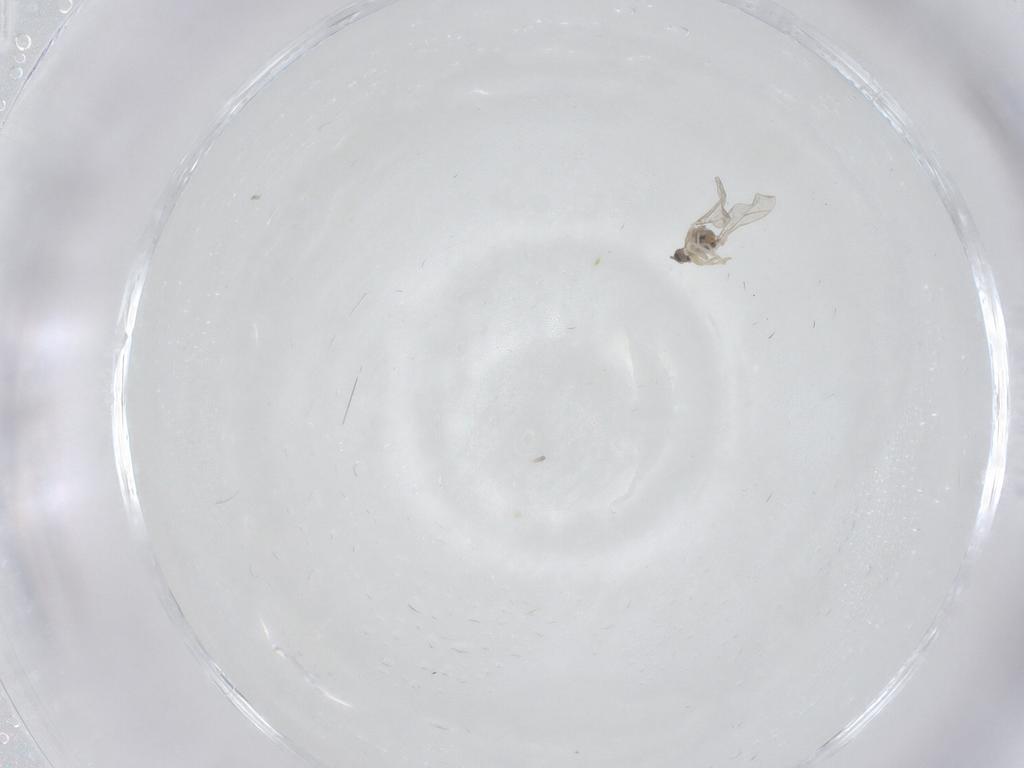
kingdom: Animalia
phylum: Arthropoda
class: Insecta
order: Diptera
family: Cecidomyiidae
